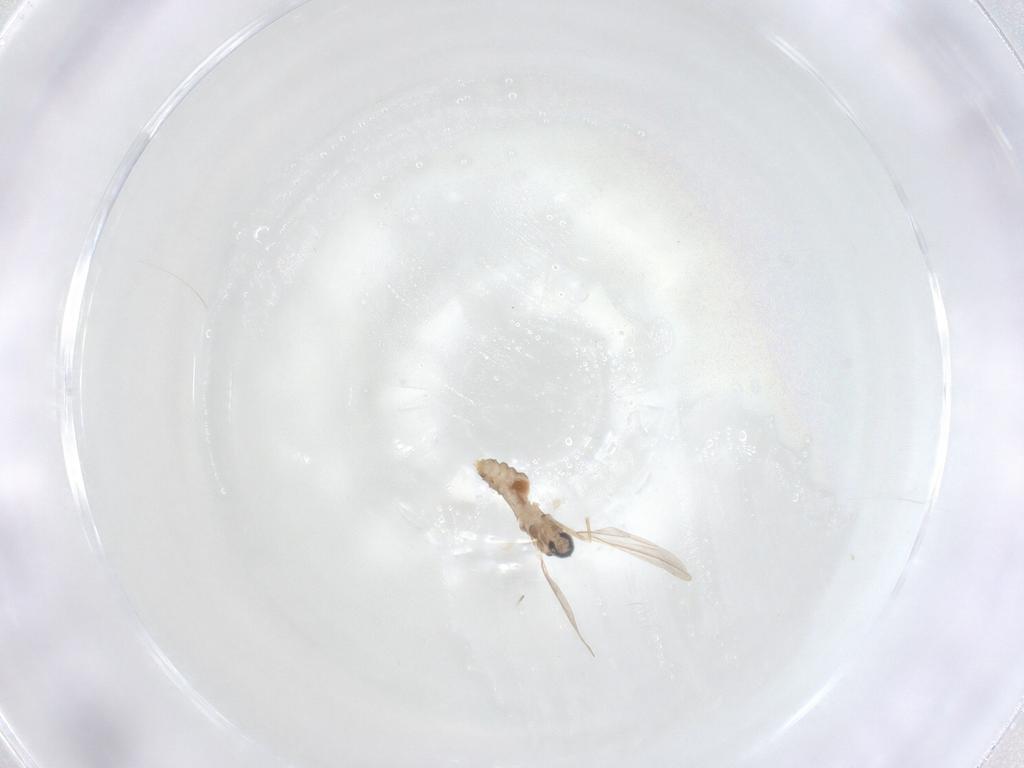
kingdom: Animalia
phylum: Arthropoda
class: Insecta
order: Diptera
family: Cecidomyiidae
